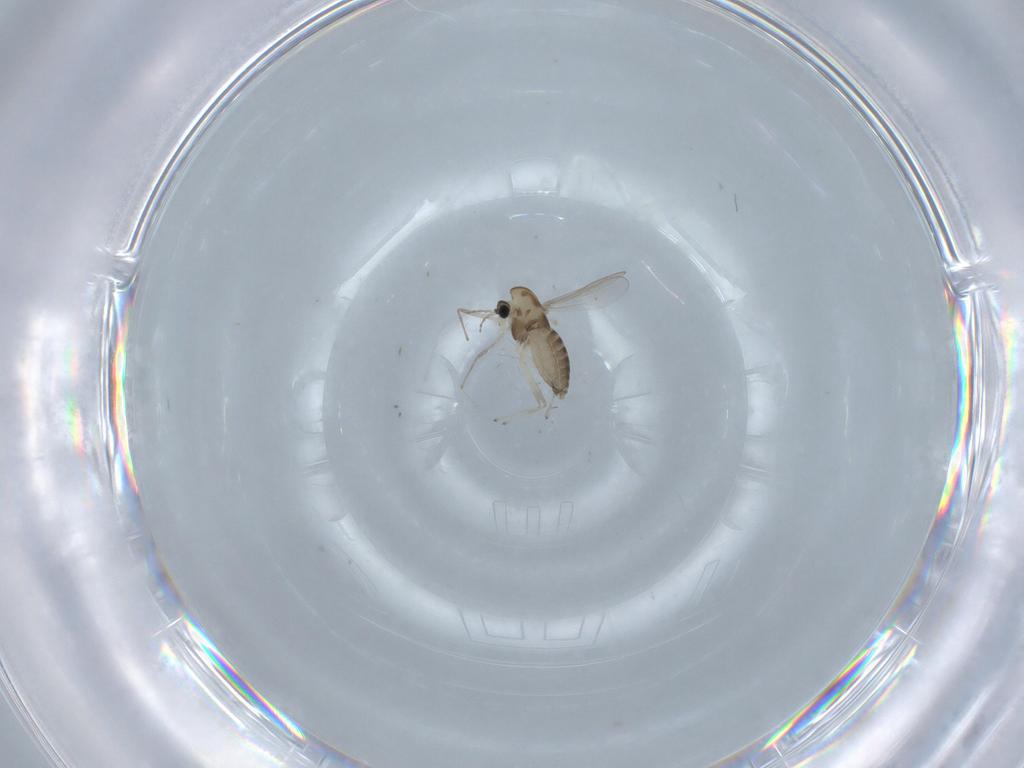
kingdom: Animalia
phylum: Arthropoda
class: Insecta
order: Diptera
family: Chironomidae
